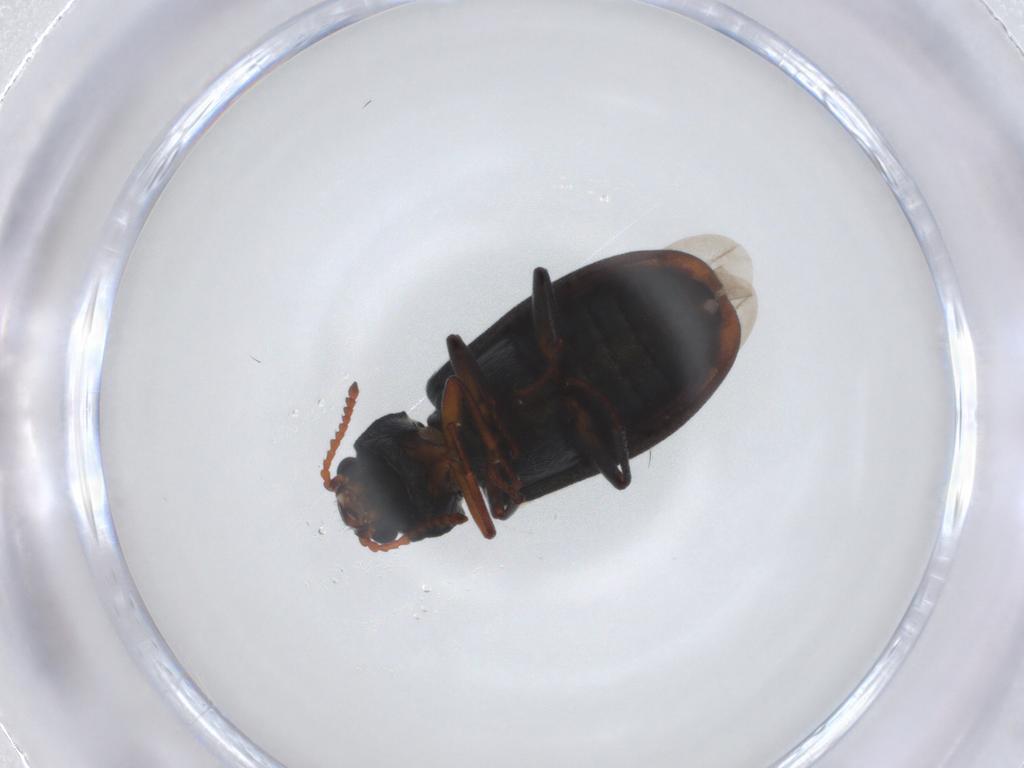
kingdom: Animalia
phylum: Arthropoda
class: Insecta
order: Coleoptera
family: Melyridae
